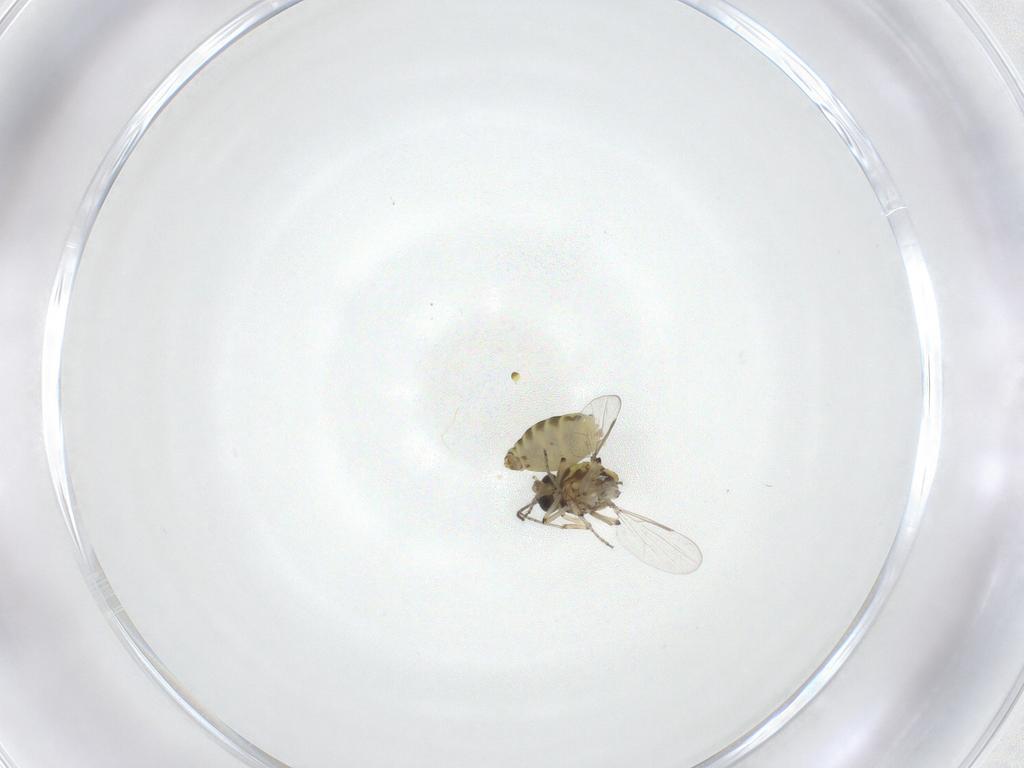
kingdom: Animalia
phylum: Arthropoda
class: Insecta
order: Diptera
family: Ceratopogonidae
